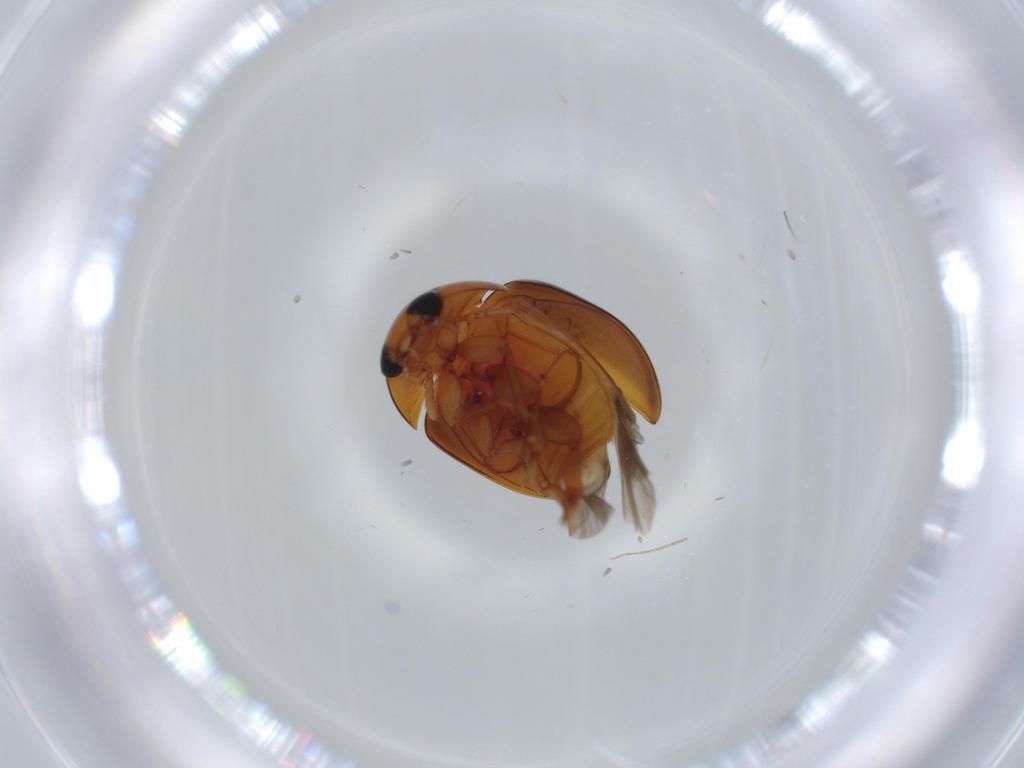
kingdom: Animalia
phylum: Arthropoda
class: Insecta
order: Coleoptera
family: Phalacridae
